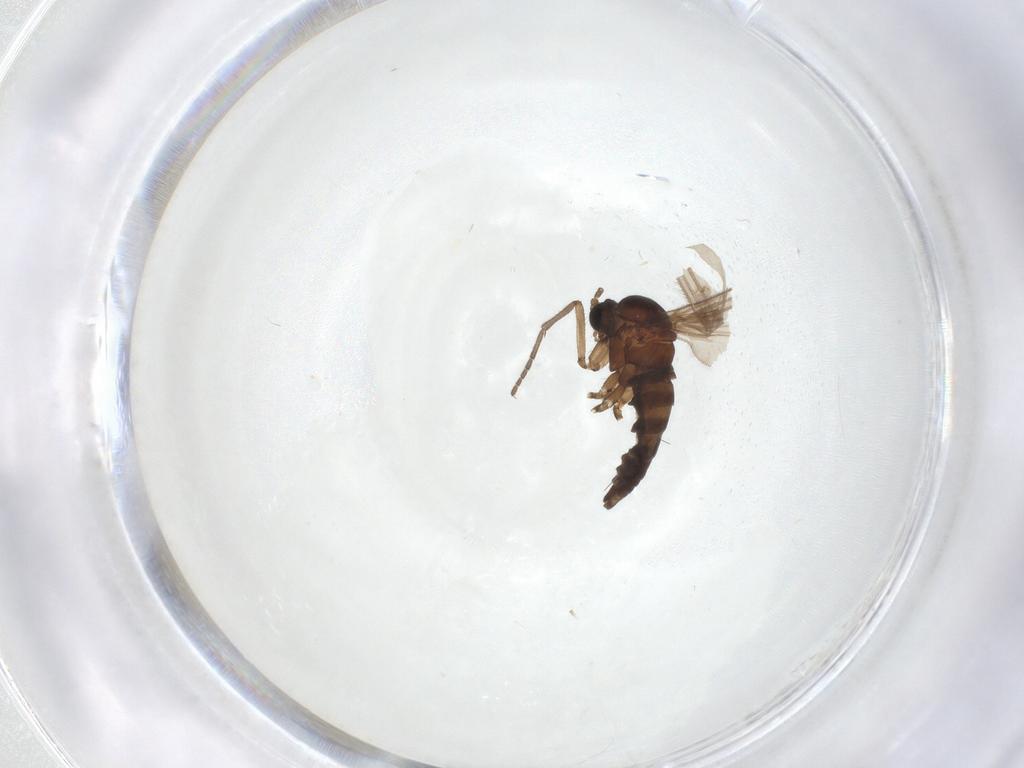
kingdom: Animalia
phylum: Arthropoda
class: Insecta
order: Diptera
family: Sciaridae
